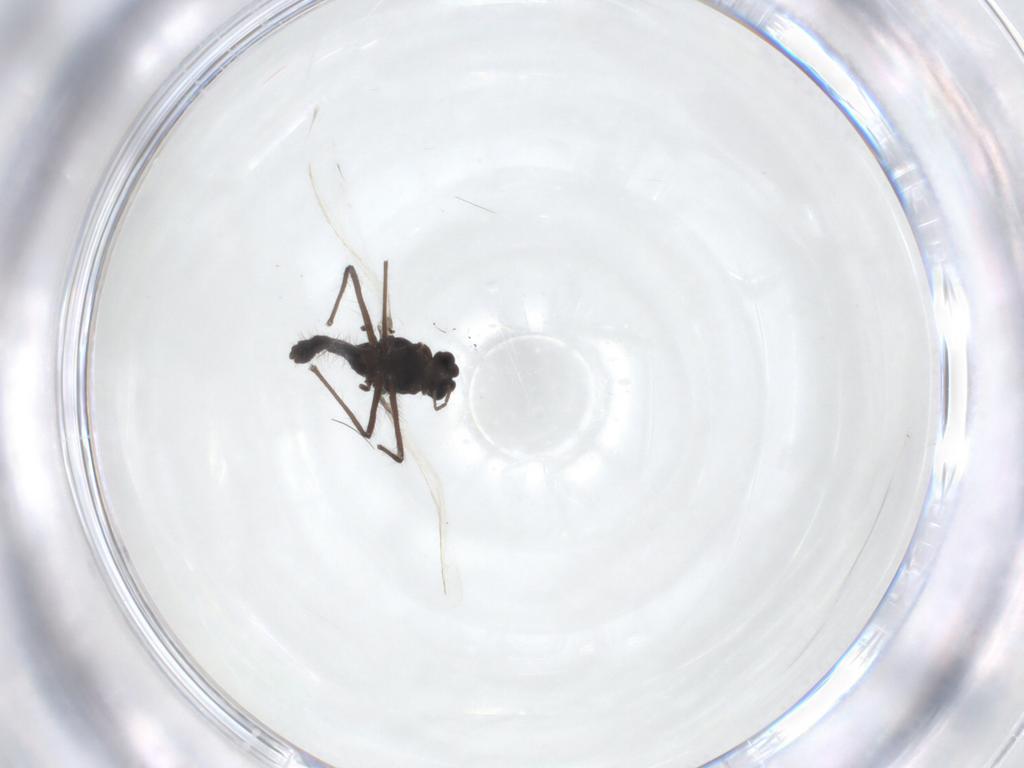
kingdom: Animalia
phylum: Arthropoda
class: Insecta
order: Diptera
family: Chironomidae
